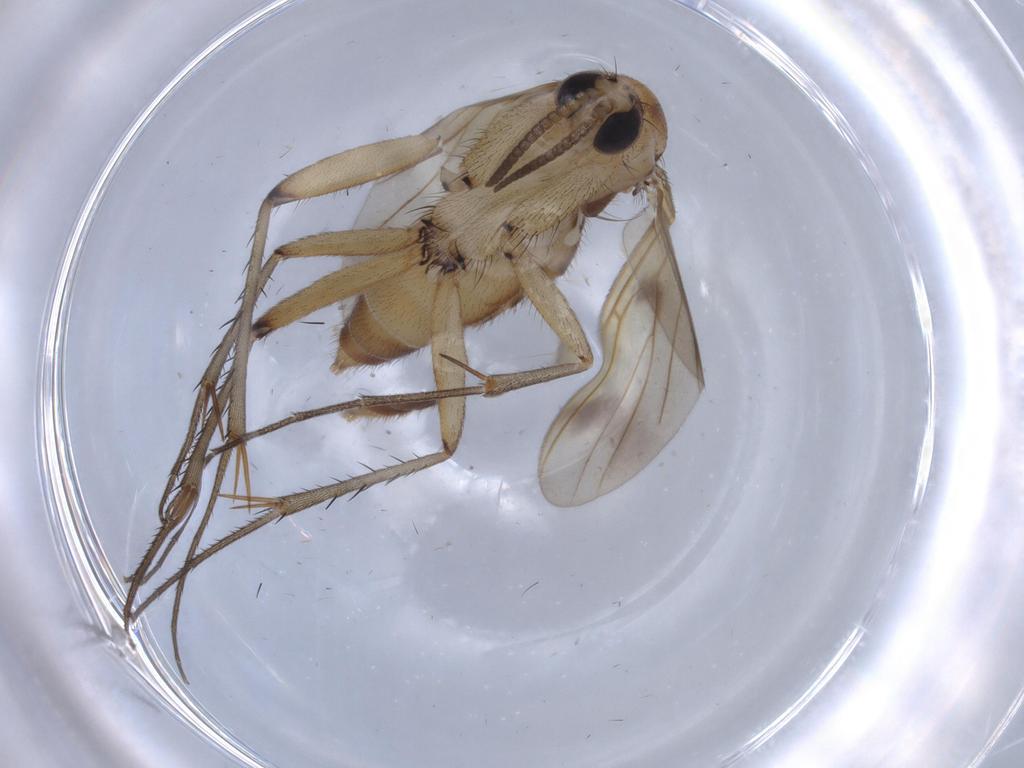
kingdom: Animalia
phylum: Arthropoda
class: Insecta
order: Diptera
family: Mycetophilidae
